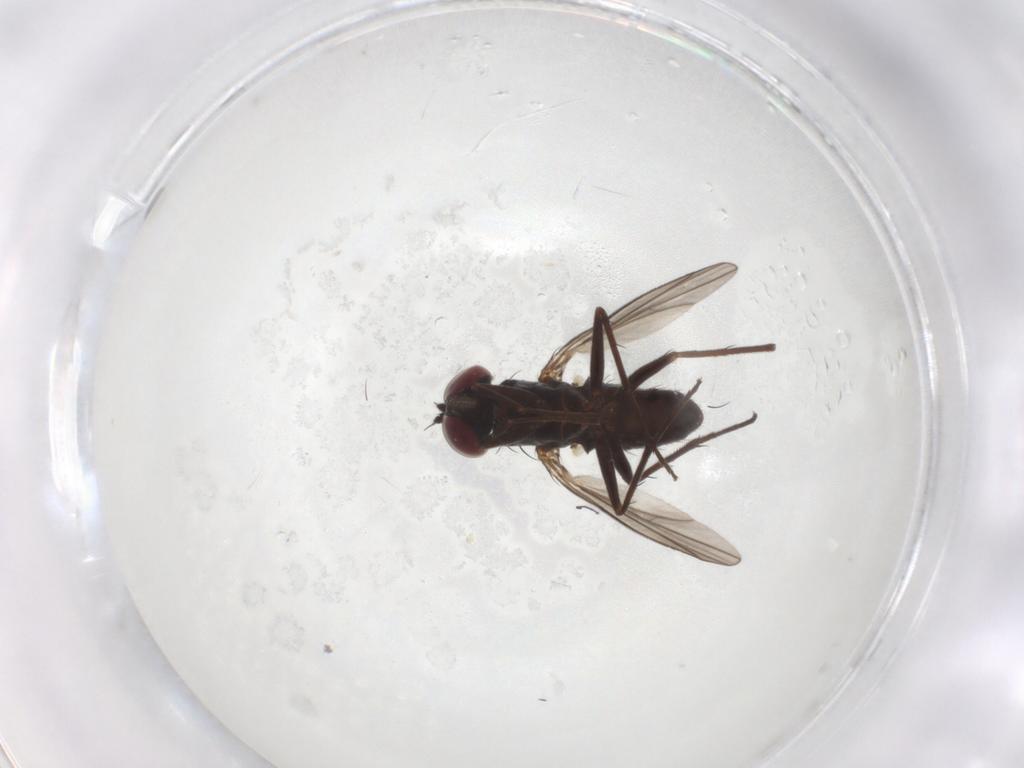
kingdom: Animalia
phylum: Arthropoda
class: Insecta
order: Diptera
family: Dolichopodidae
